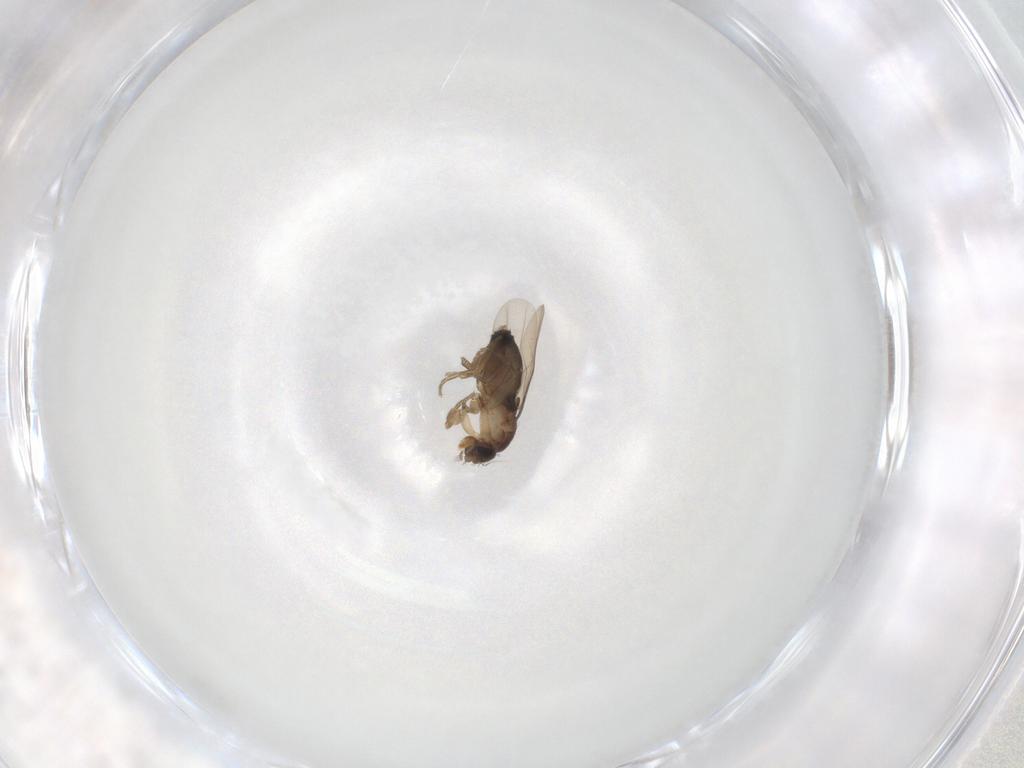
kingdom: Animalia
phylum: Arthropoda
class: Insecta
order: Diptera
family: Phoridae
